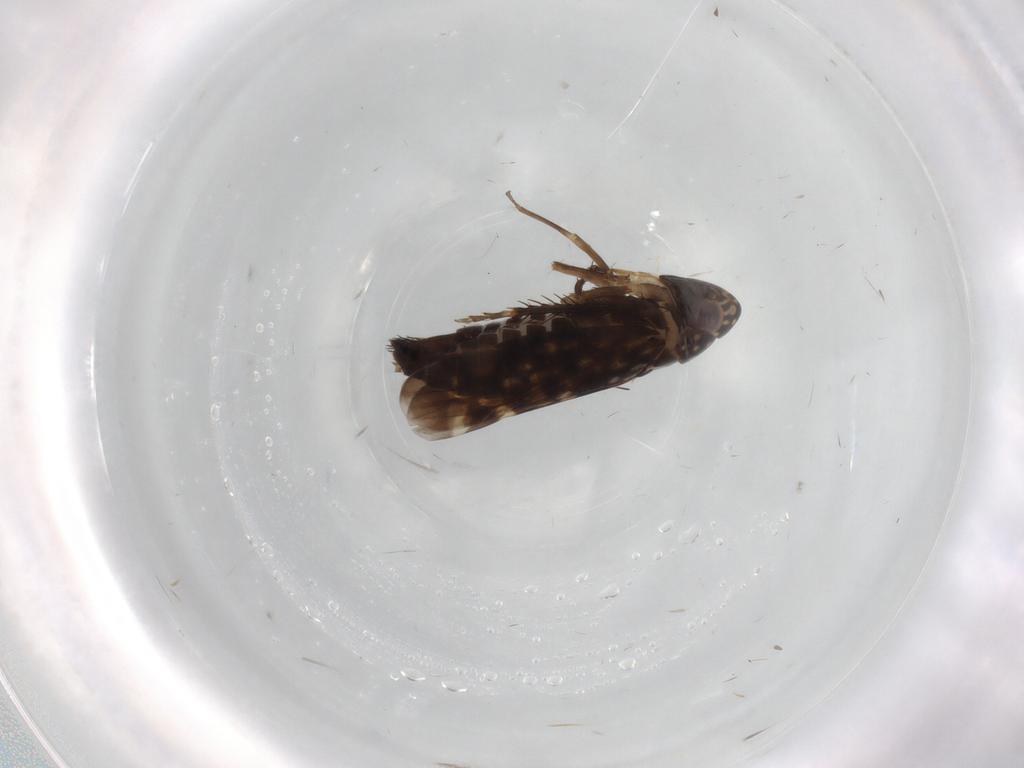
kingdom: Animalia
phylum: Arthropoda
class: Insecta
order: Hemiptera
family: Cicadellidae
